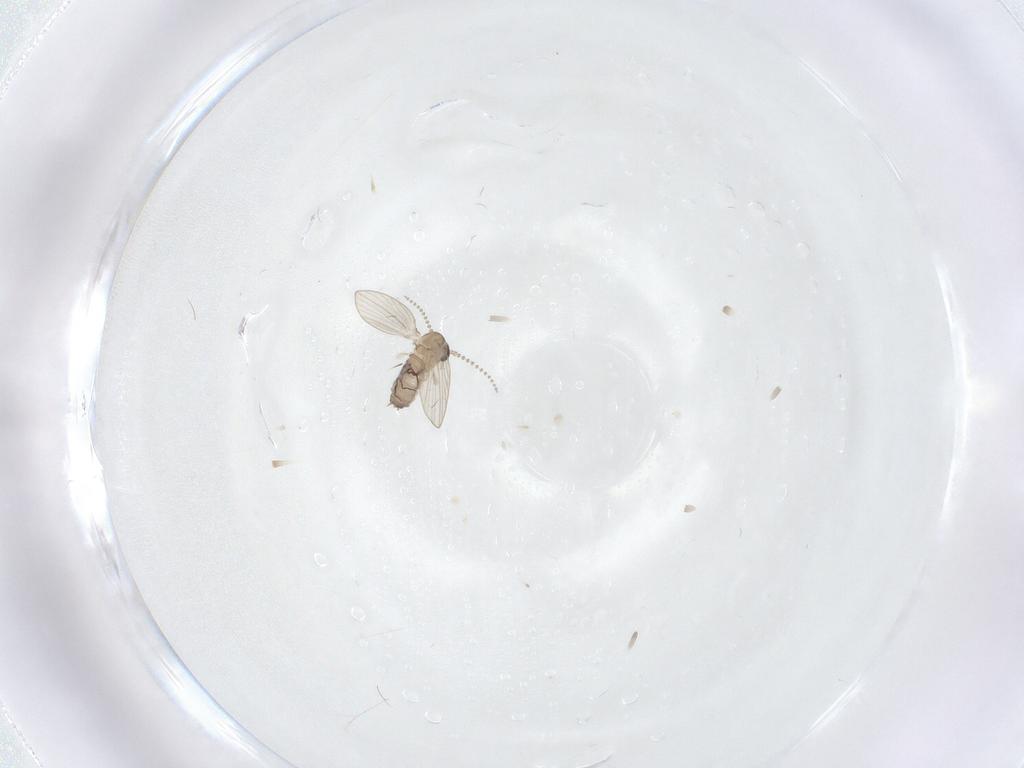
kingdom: Animalia
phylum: Arthropoda
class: Insecta
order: Diptera
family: Psychodidae
